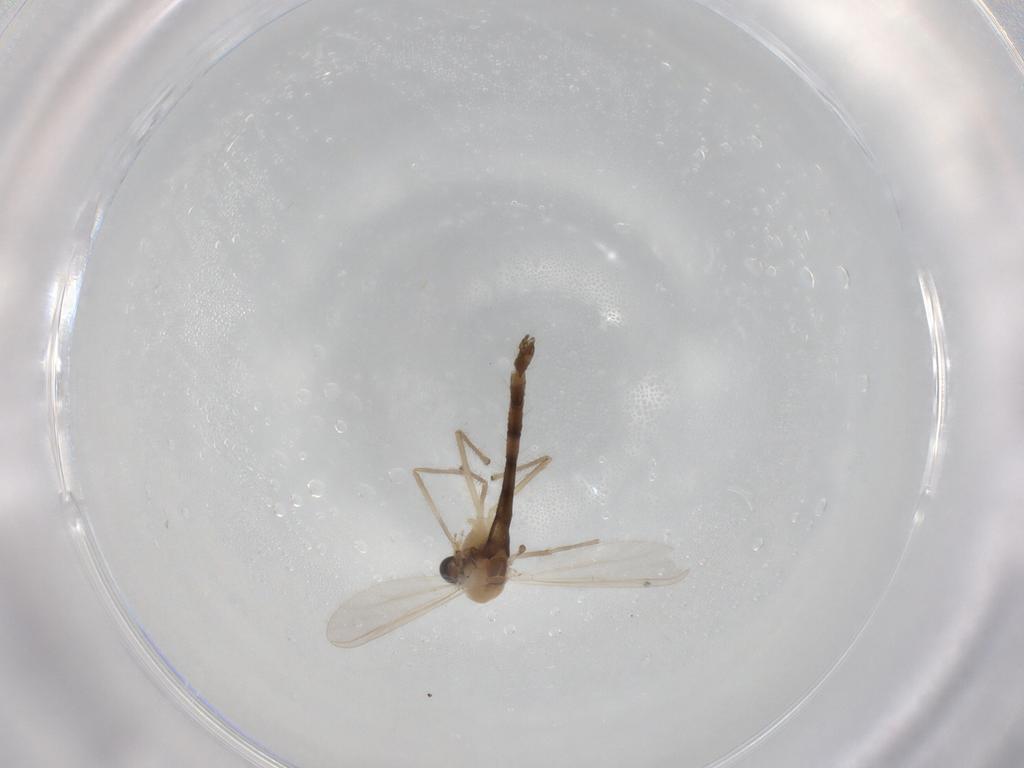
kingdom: Animalia
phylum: Arthropoda
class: Insecta
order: Diptera
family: Chironomidae
